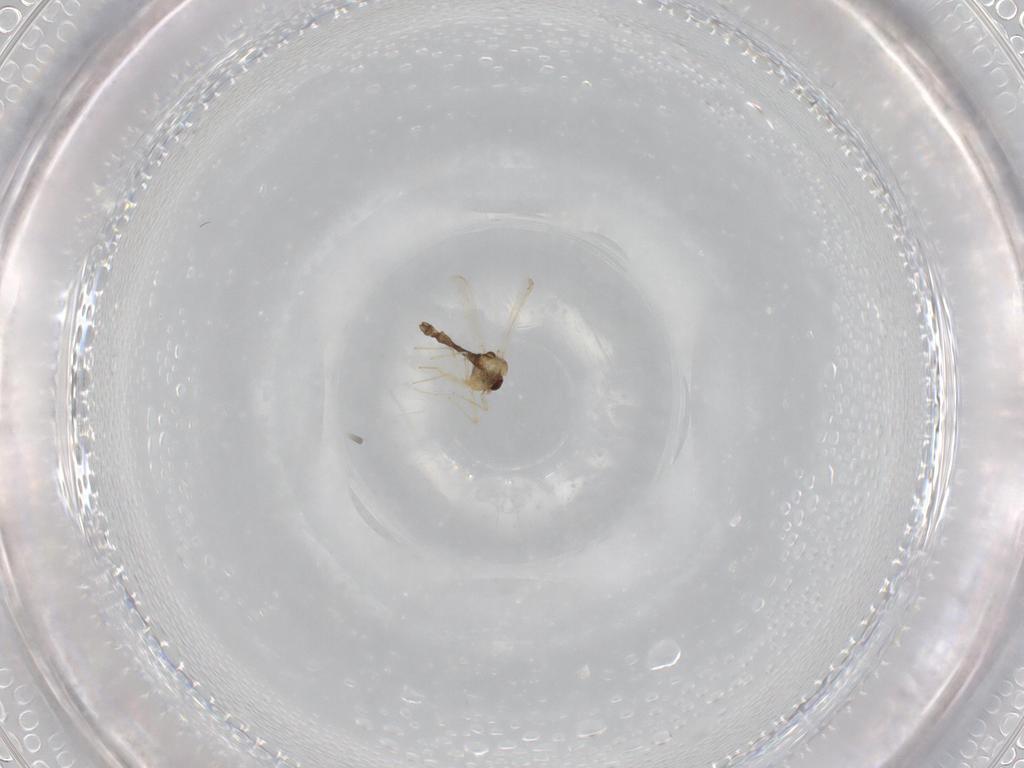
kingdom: Animalia
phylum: Arthropoda
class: Insecta
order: Diptera
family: Chironomidae
